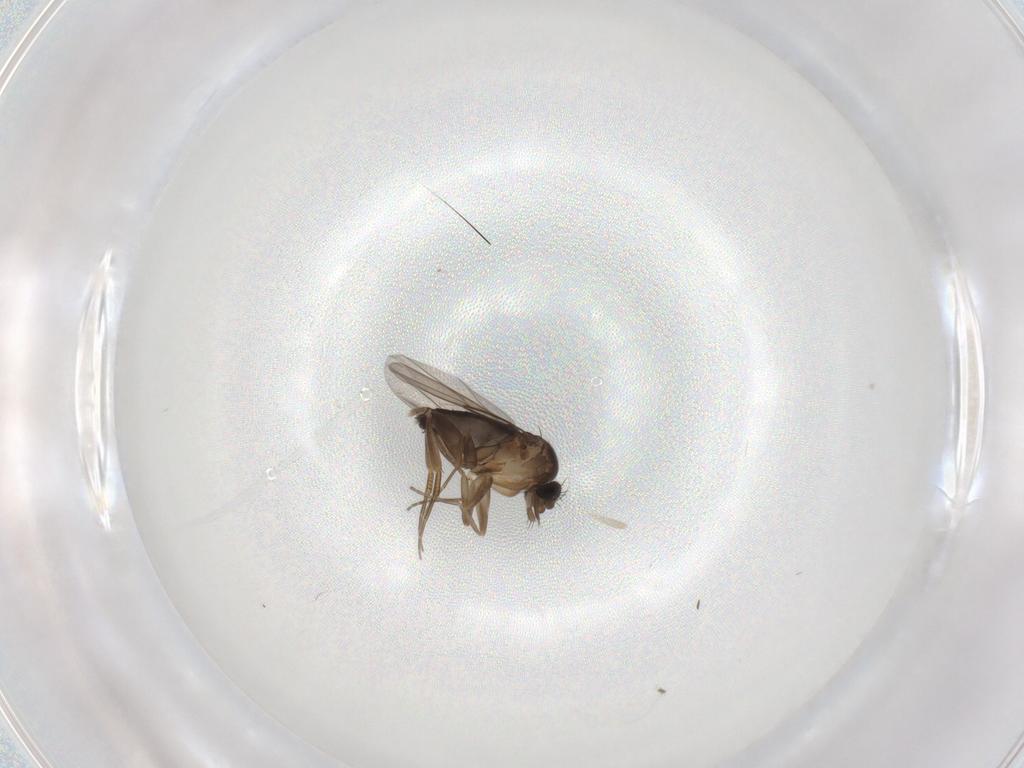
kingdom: Animalia
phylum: Arthropoda
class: Insecta
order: Diptera
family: Phoridae
